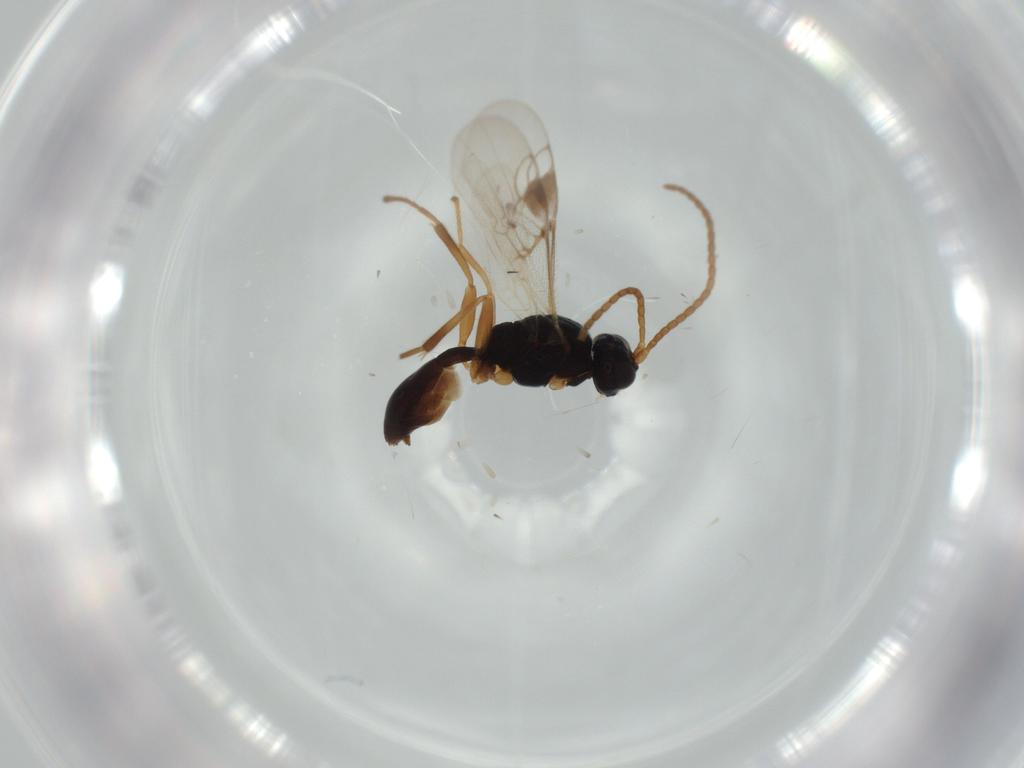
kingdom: Animalia
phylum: Arthropoda
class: Insecta
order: Hymenoptera
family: Braconidae
